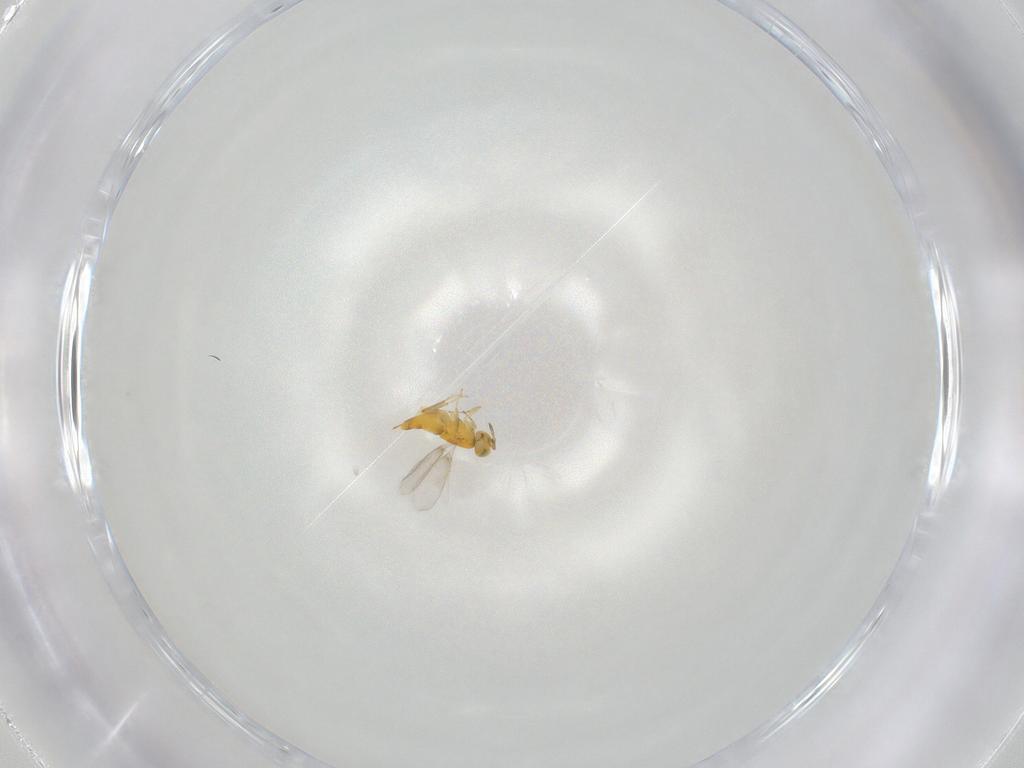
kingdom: Animalia
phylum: Arthropoda
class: Insecta
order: Hymenoptera
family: Aphelinidae
